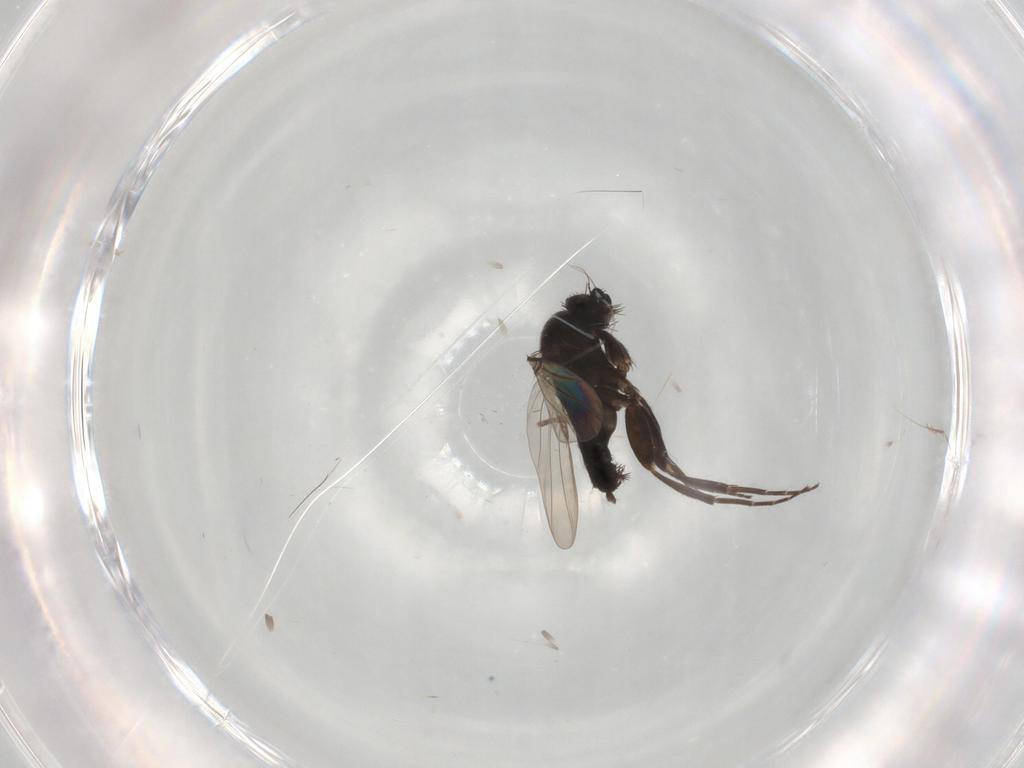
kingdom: Animalia
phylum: Arthropoda
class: Insecta
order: Diptera
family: Phoridae
